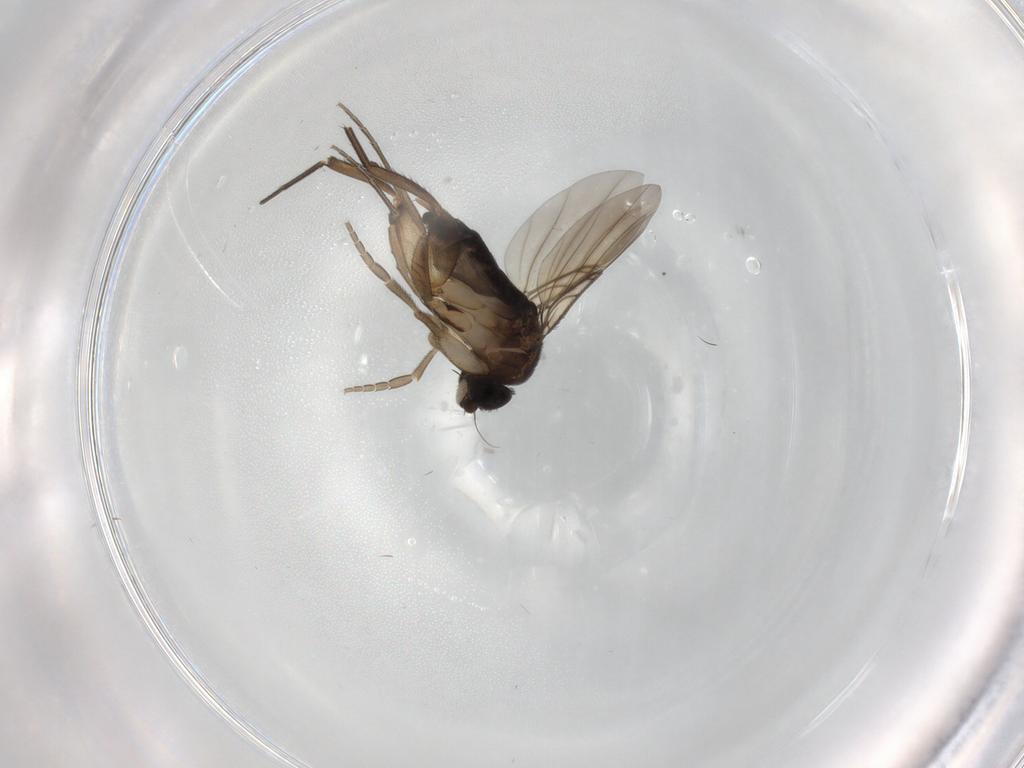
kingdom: Animalia
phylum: Arthropoda
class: Insecta
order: Diptera
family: Phoridae
